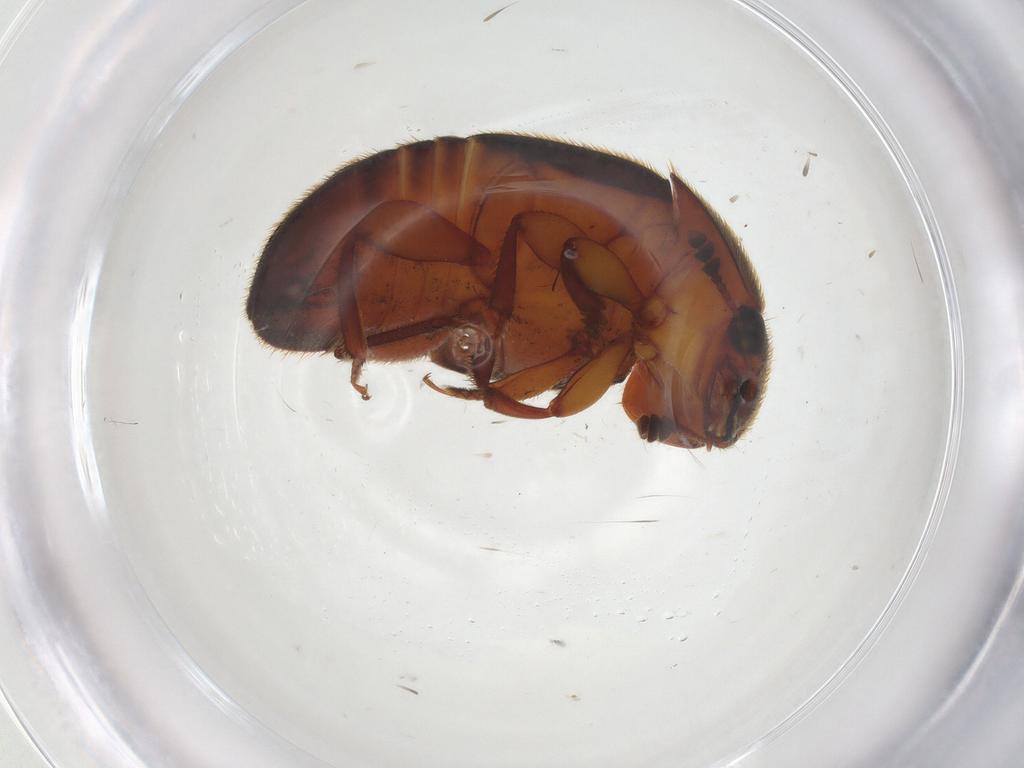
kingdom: Animalia
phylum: Arthropoda
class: Insecta
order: Coleoptera
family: Nitidulidae
